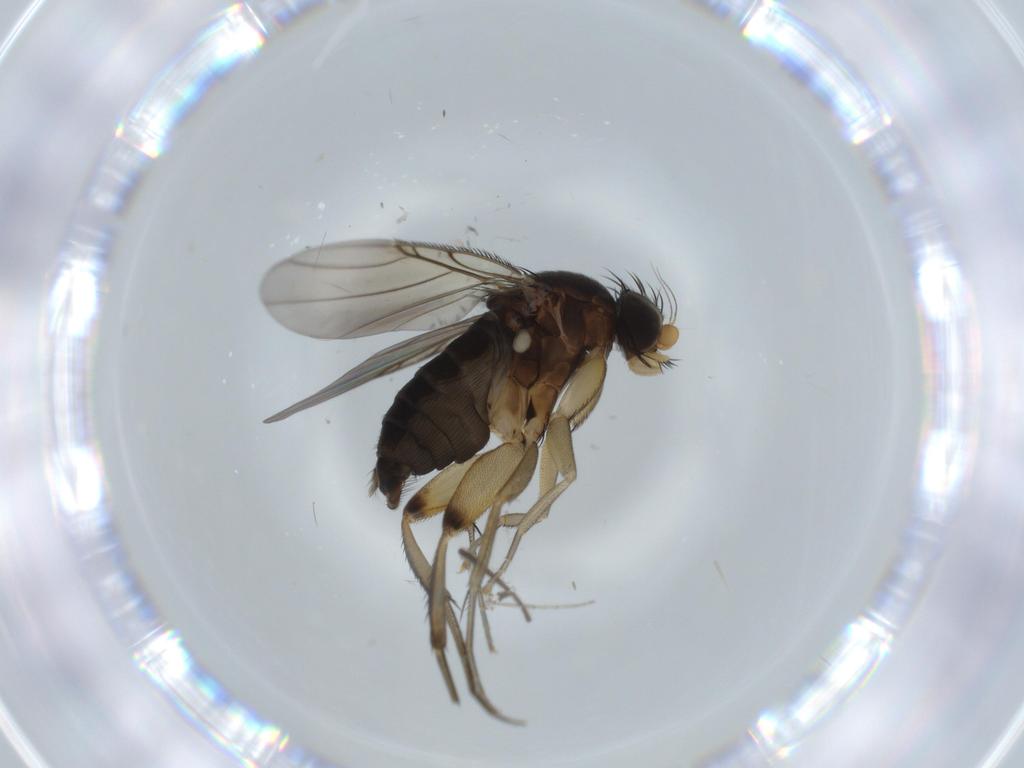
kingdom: Animalia
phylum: Arthropoda
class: Insecta
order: Diptera
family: Phoridae
